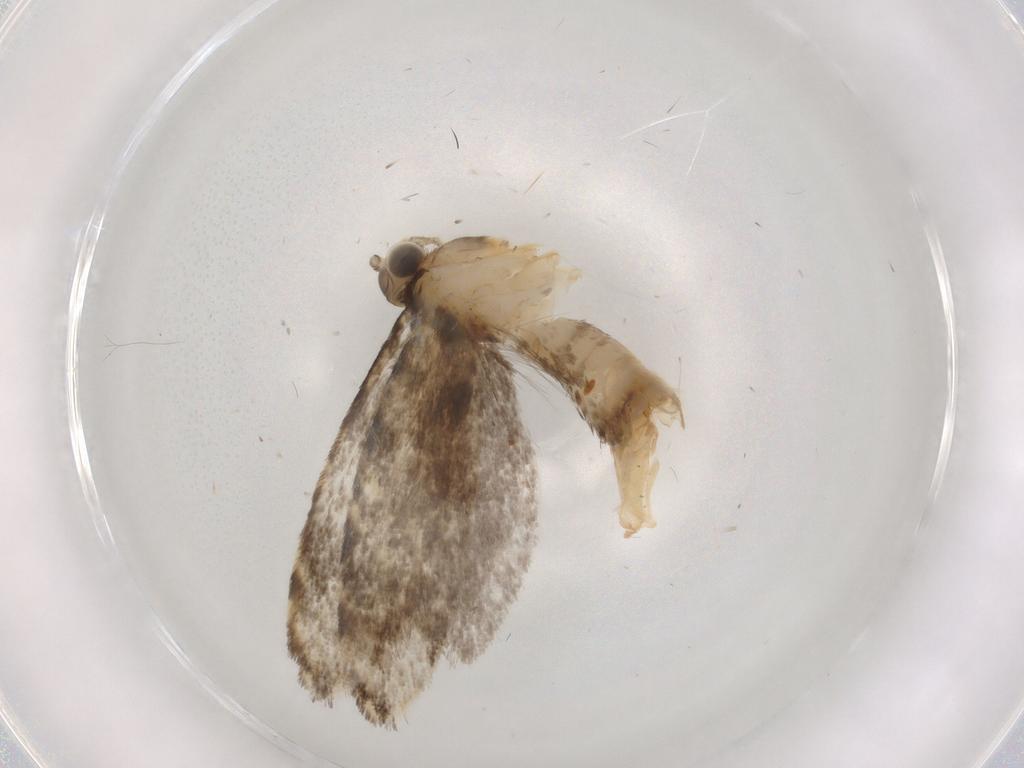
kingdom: Animalia
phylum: Arthropoda
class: Insecta
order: Lepidoptera
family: Tineidae
